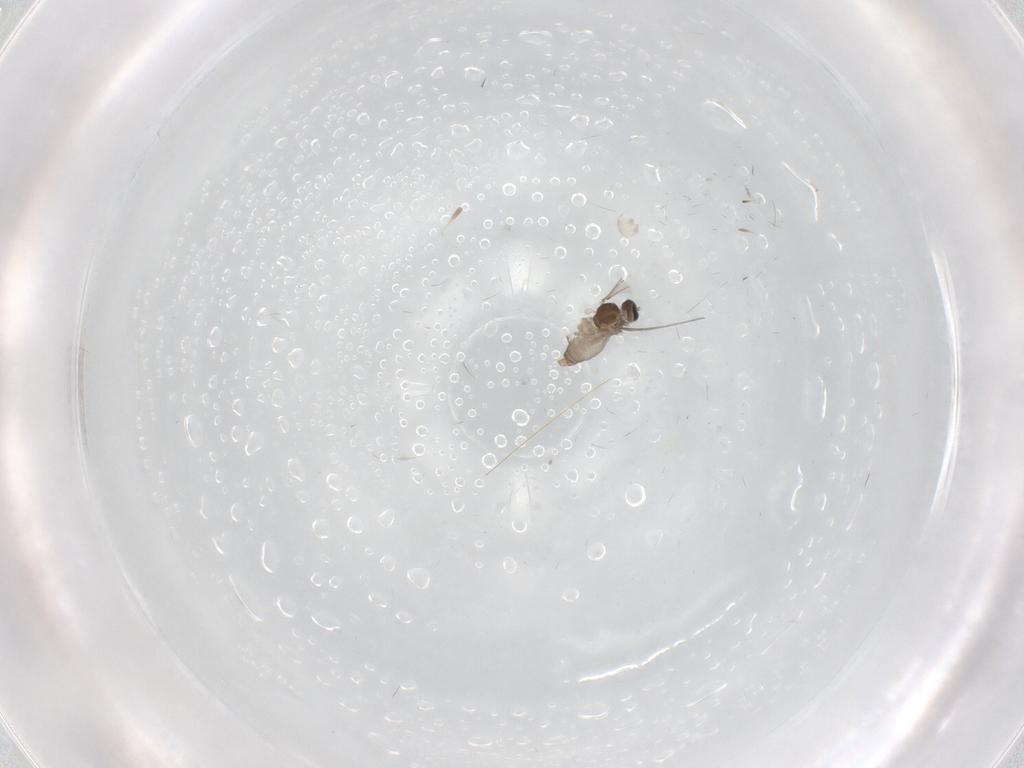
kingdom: Animalia
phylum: Arthropoda
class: Insecta
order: Diptera
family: Cecidomyiidae
